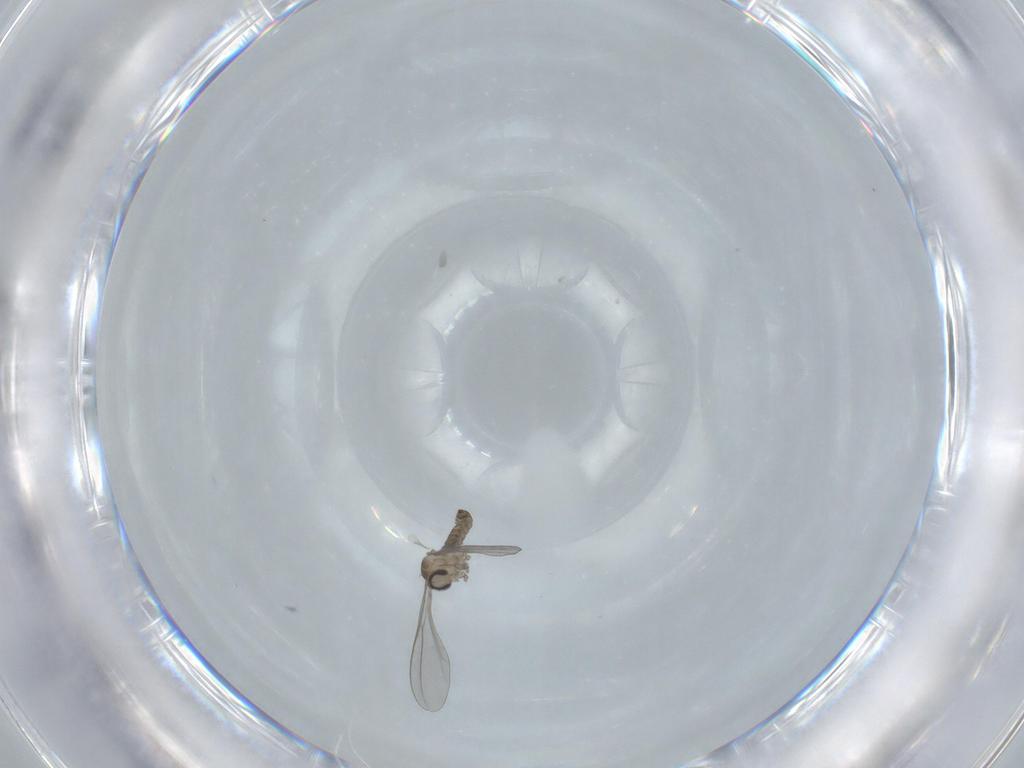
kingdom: Animalia
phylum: Arthropoda
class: Insecta
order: Diptera
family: Cecidomyiidae
